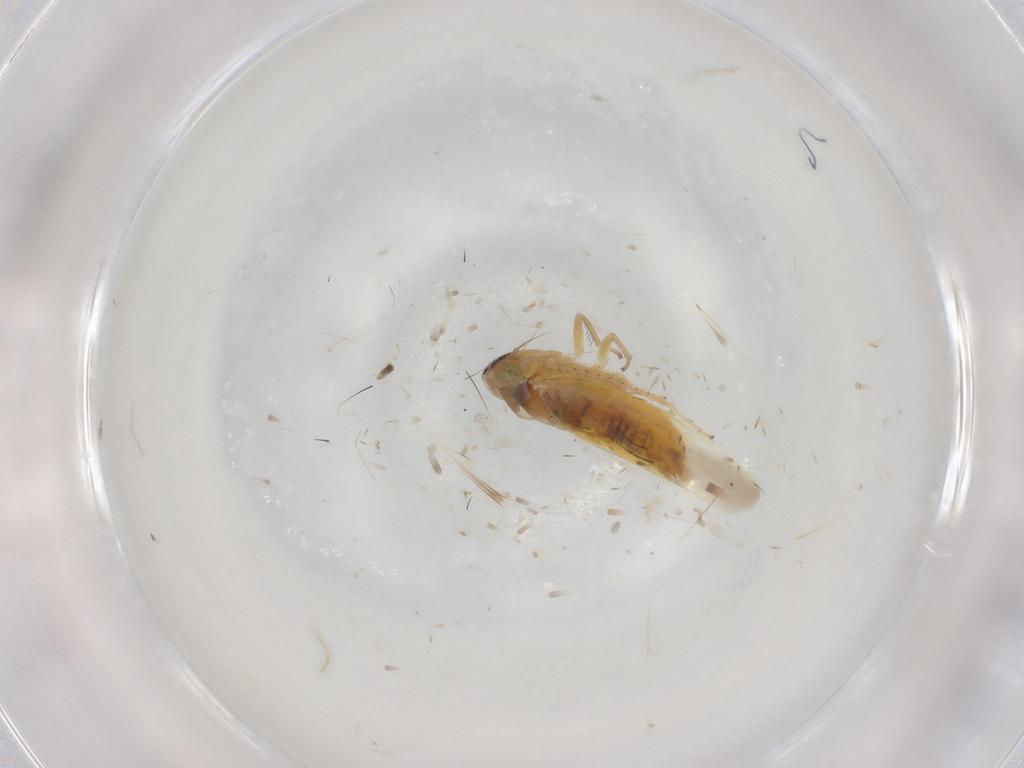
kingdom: Animalia
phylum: Arthropoda
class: Insecta
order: Hemiptera
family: Cicadellidae
